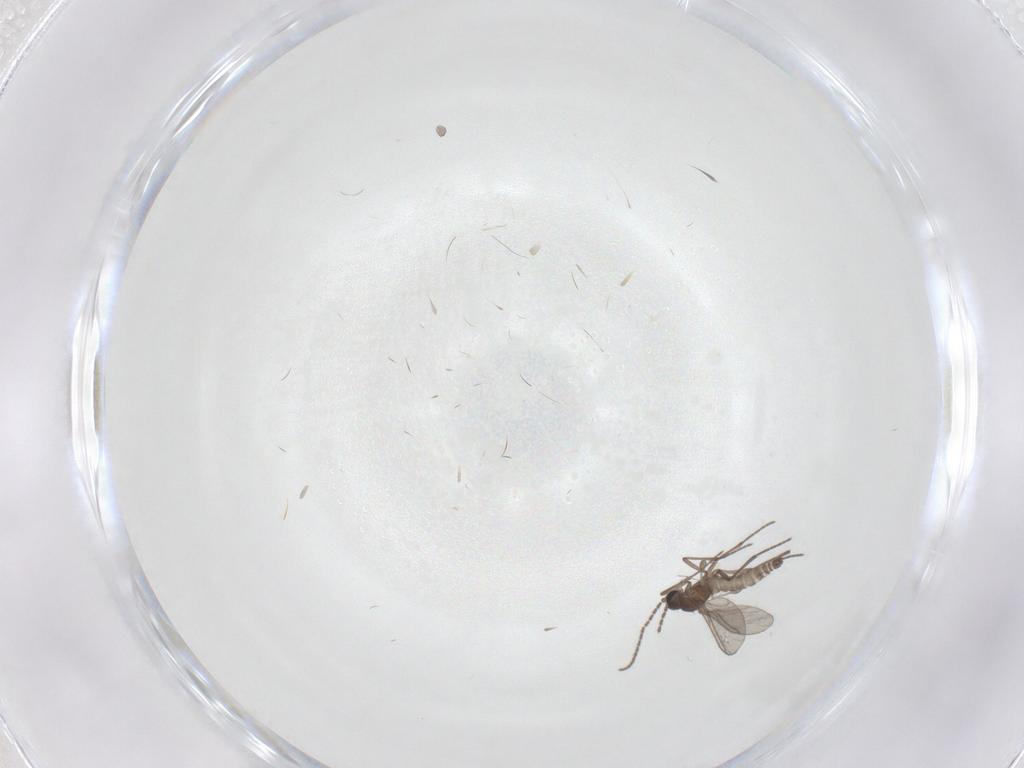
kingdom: Animalia
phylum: Arthropoda
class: Insecta
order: Diptera
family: Sciaridae
